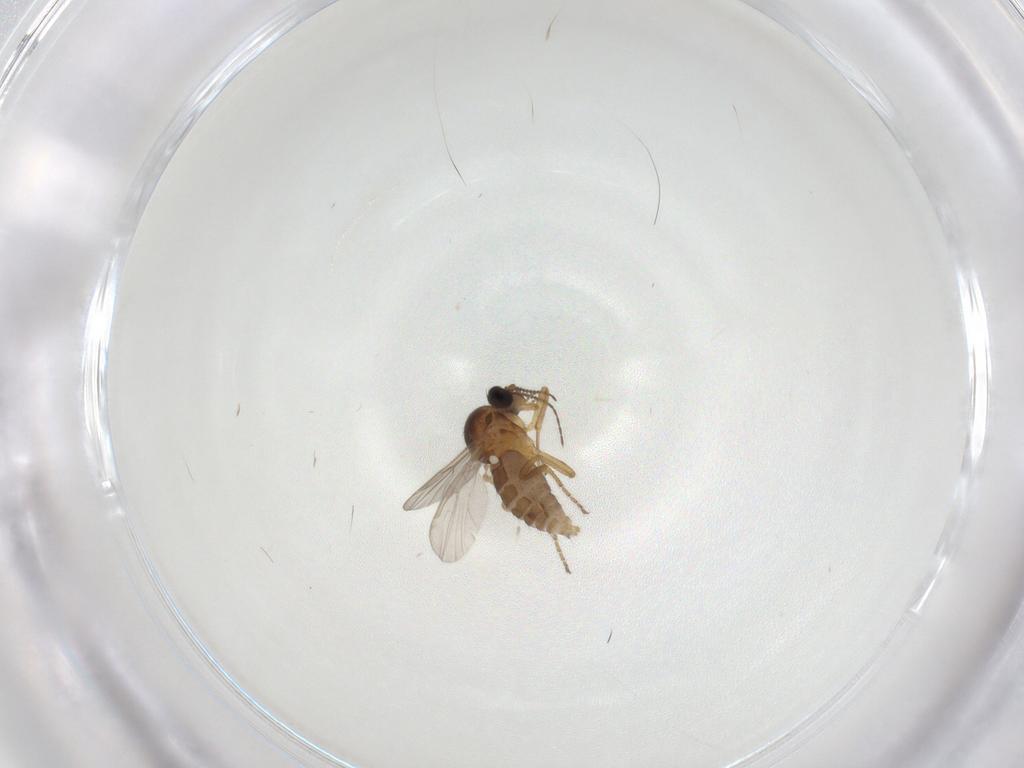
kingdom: Animalia
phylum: Arthropoda
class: Insecta
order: Diptera
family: Ceratopogonidae
